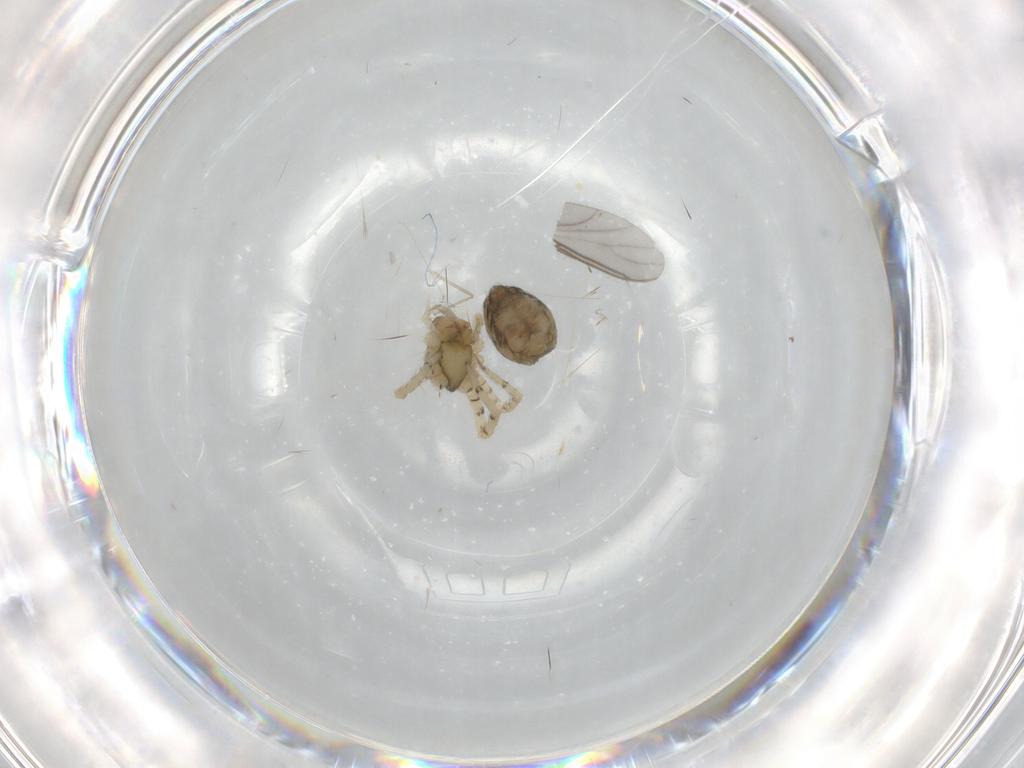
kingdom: Animalia
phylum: Arthropoda
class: Arachnida
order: Araneae
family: Corinnidae
